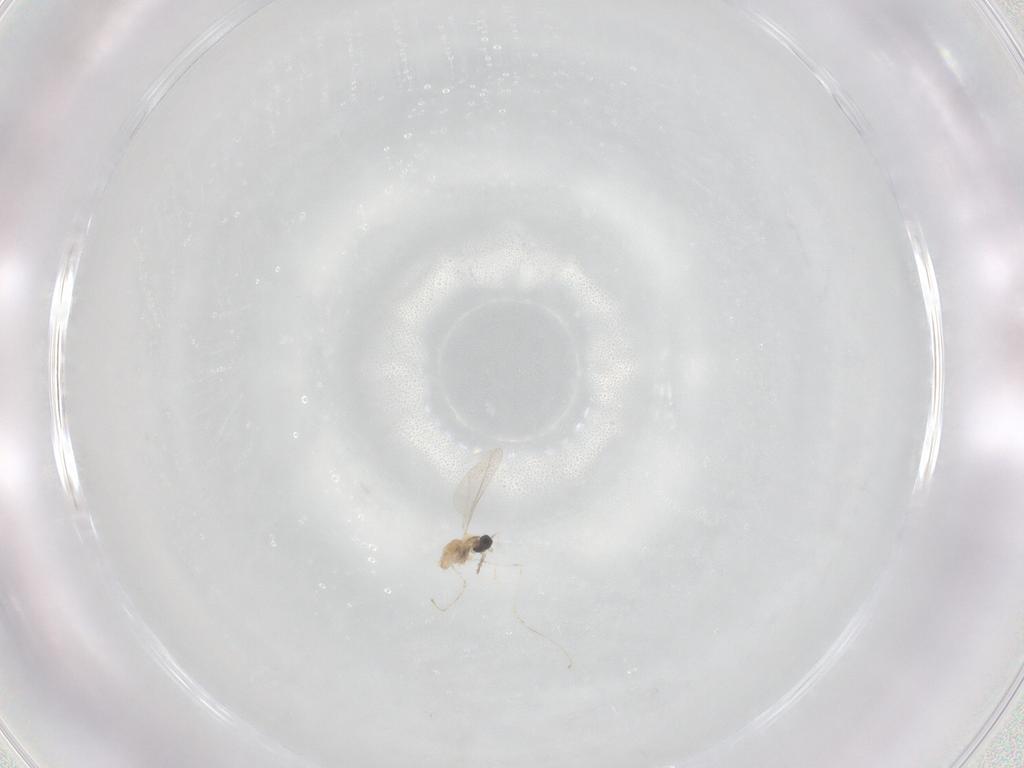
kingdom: Animalia
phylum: Arthropoda
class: Insecta
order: Diptera
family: Cecidomyiidae
